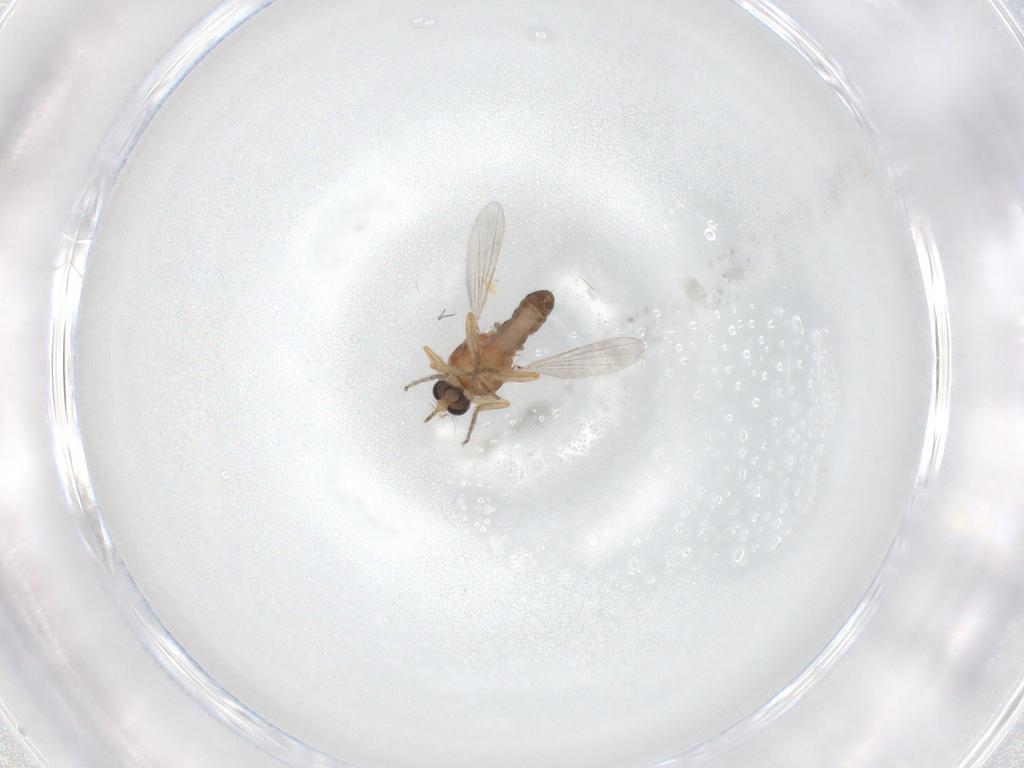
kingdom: Animalia
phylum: Arthropoda
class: Insecta
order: Diptera
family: Ceratopogonidae
